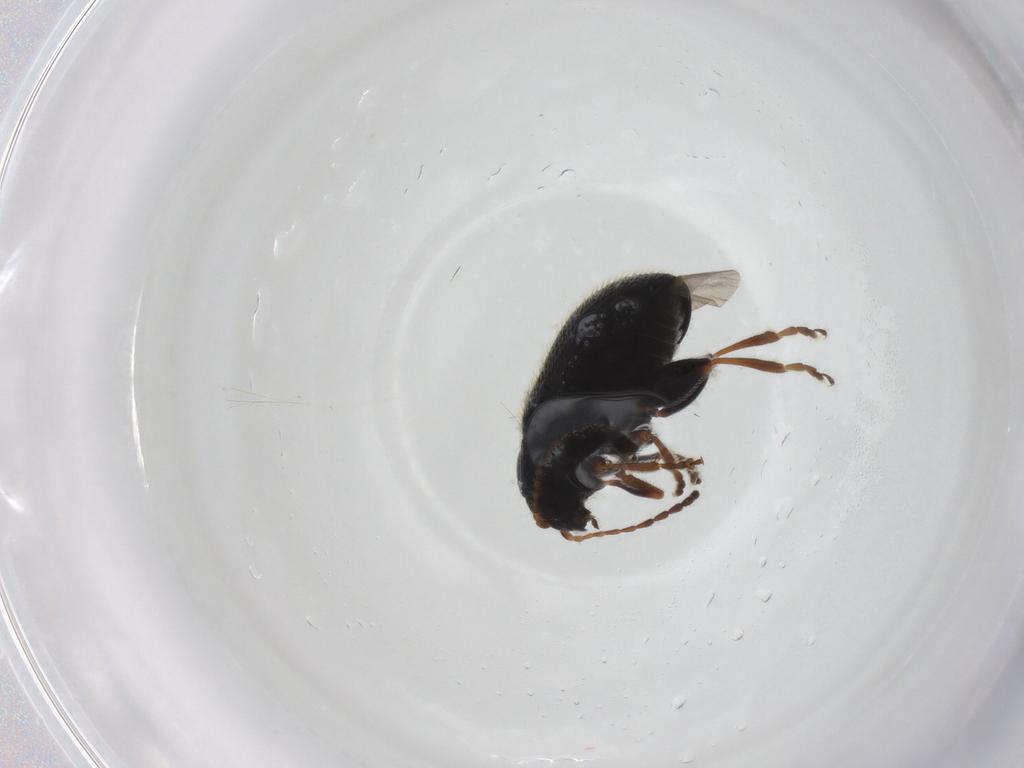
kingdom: Animalia
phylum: Arthropoda
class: Insecta
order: Coleoptera
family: Chrysomelidae
